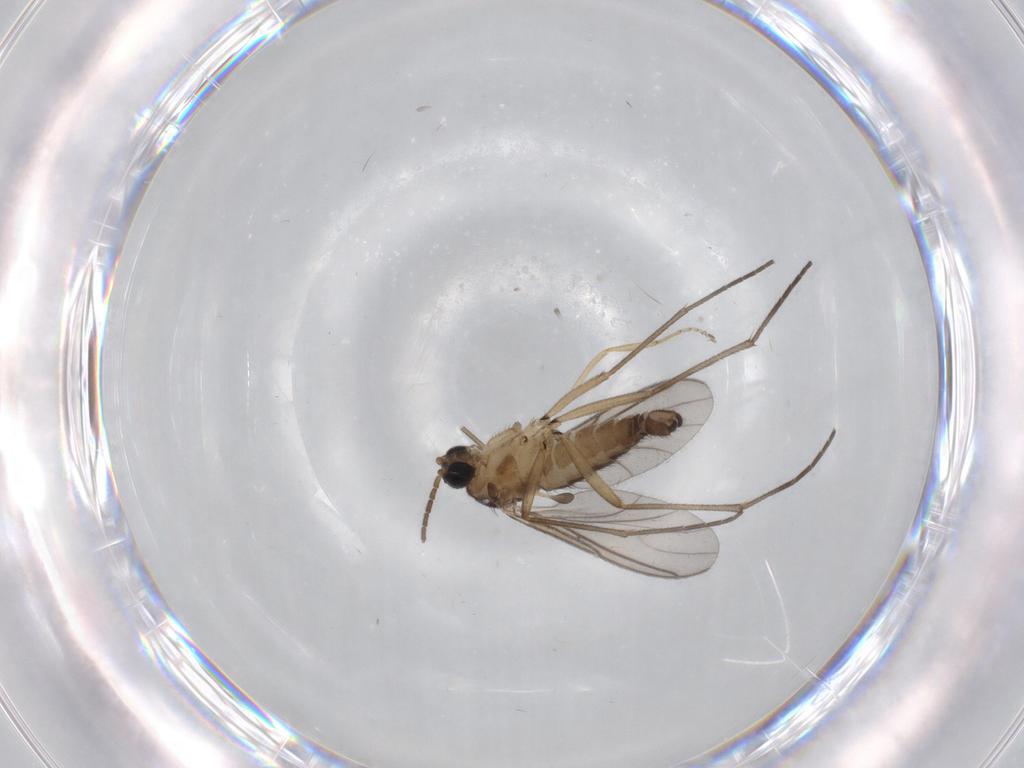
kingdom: Animalia
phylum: Arthropoda
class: Insecta
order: Diptera
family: Sciaridae
